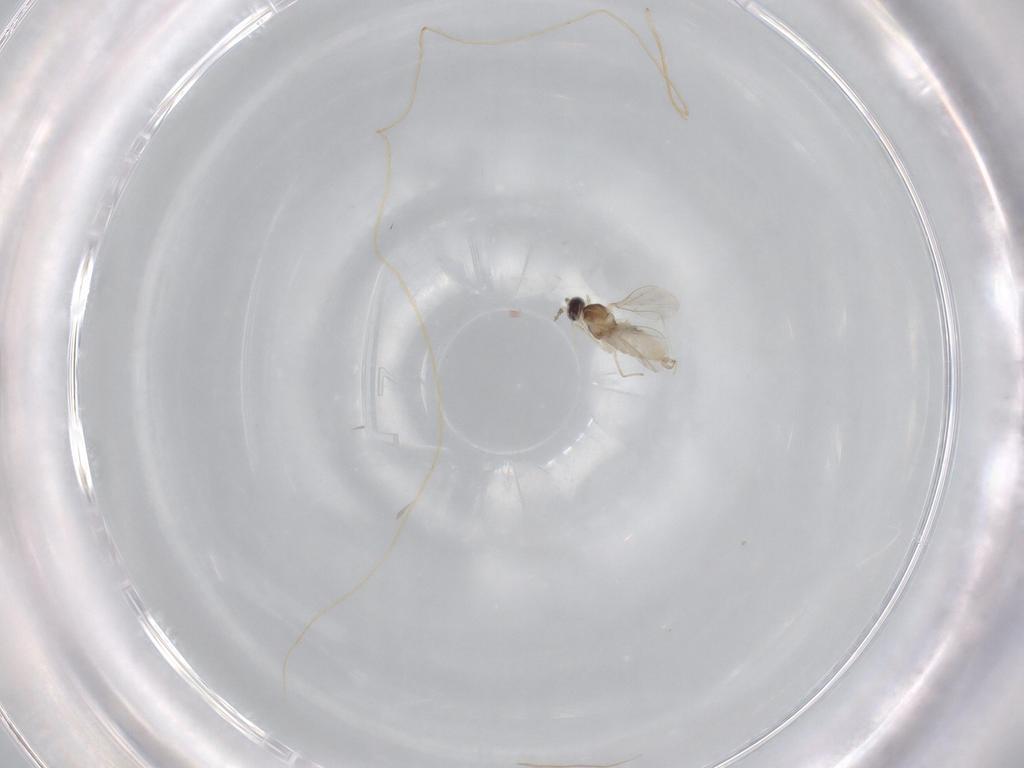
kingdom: Animalia
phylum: Arthropoda
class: Insecta
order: Diptera
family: Cecidomyiidae
